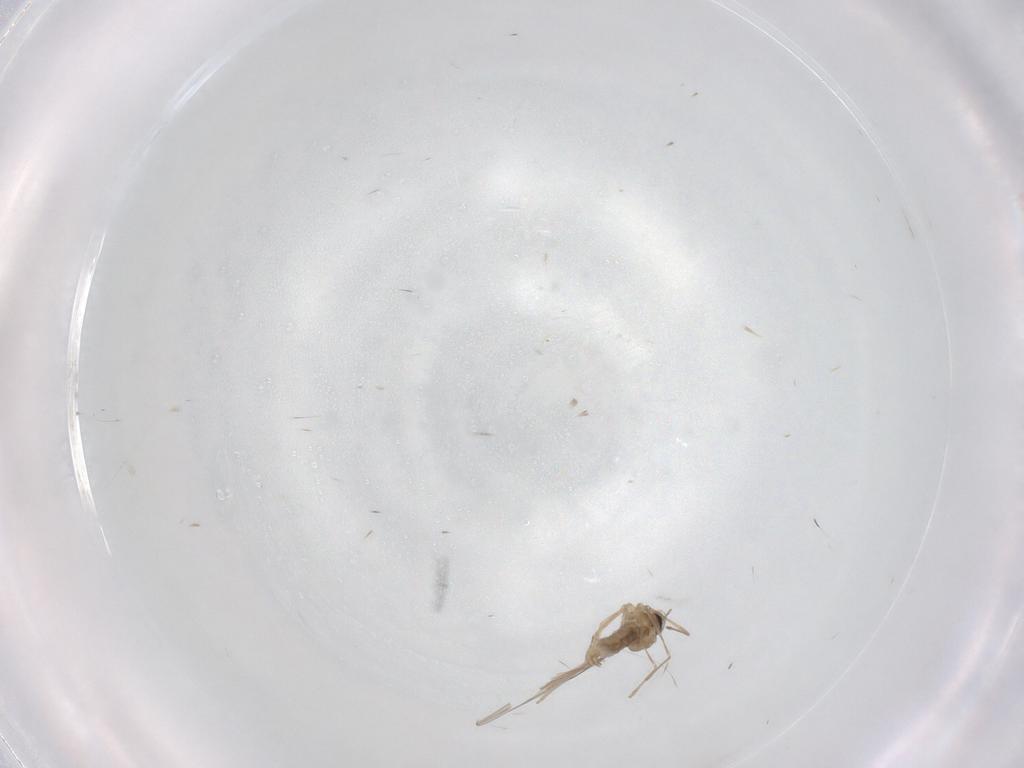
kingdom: Animalia
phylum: Arthropoda
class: Insecta
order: Diptera
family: Cecidomyiidae
